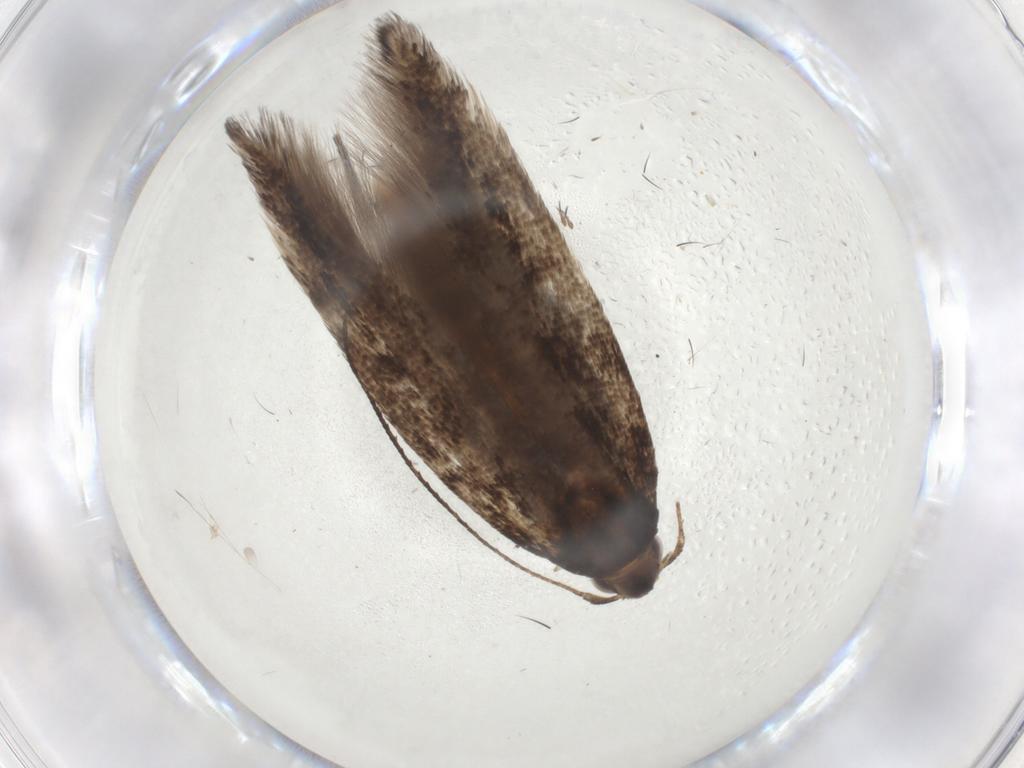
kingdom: Animalia
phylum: Arthropoda
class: Insecta
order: Lepidoptera
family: Gelechiidae
